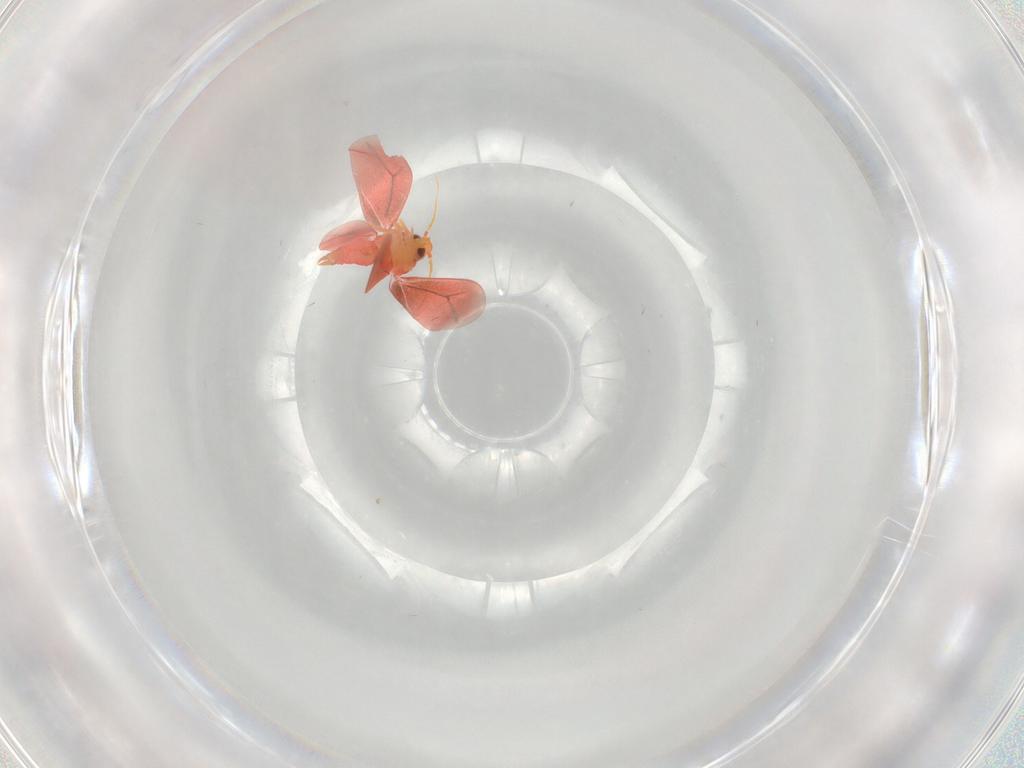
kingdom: Animalia
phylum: Arthropoda
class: Insecta
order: Hemiptera
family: Aleyrodidae
